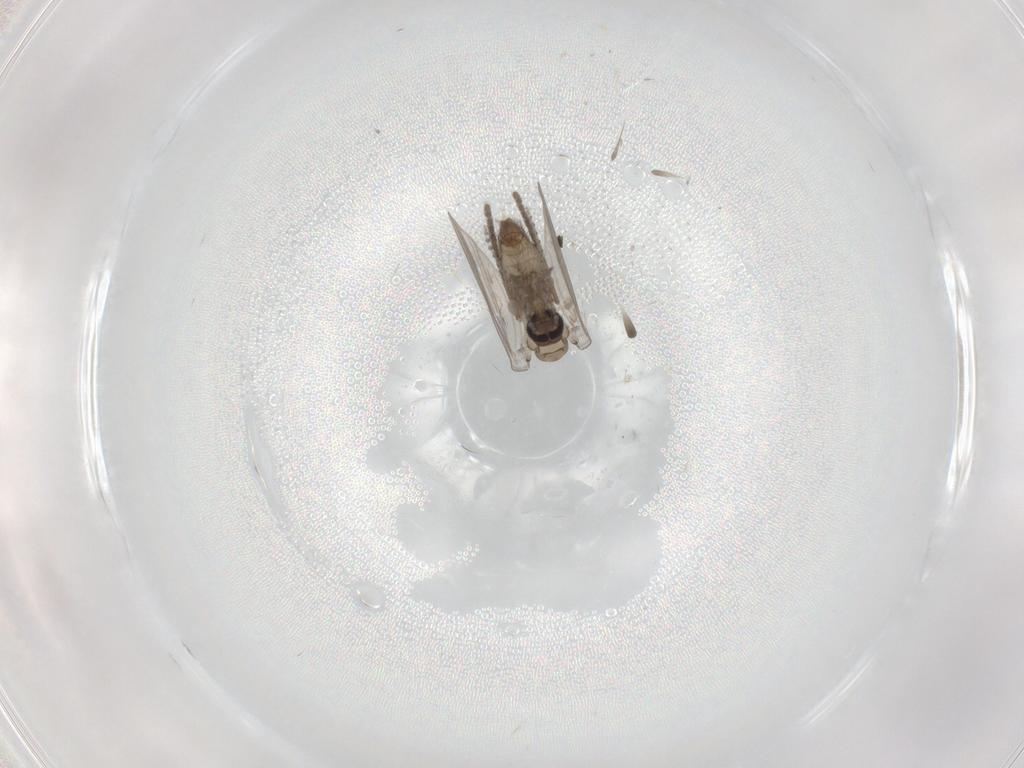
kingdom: Animalia
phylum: Arthropoda
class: Insecta
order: Diptera
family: Psychodidae
